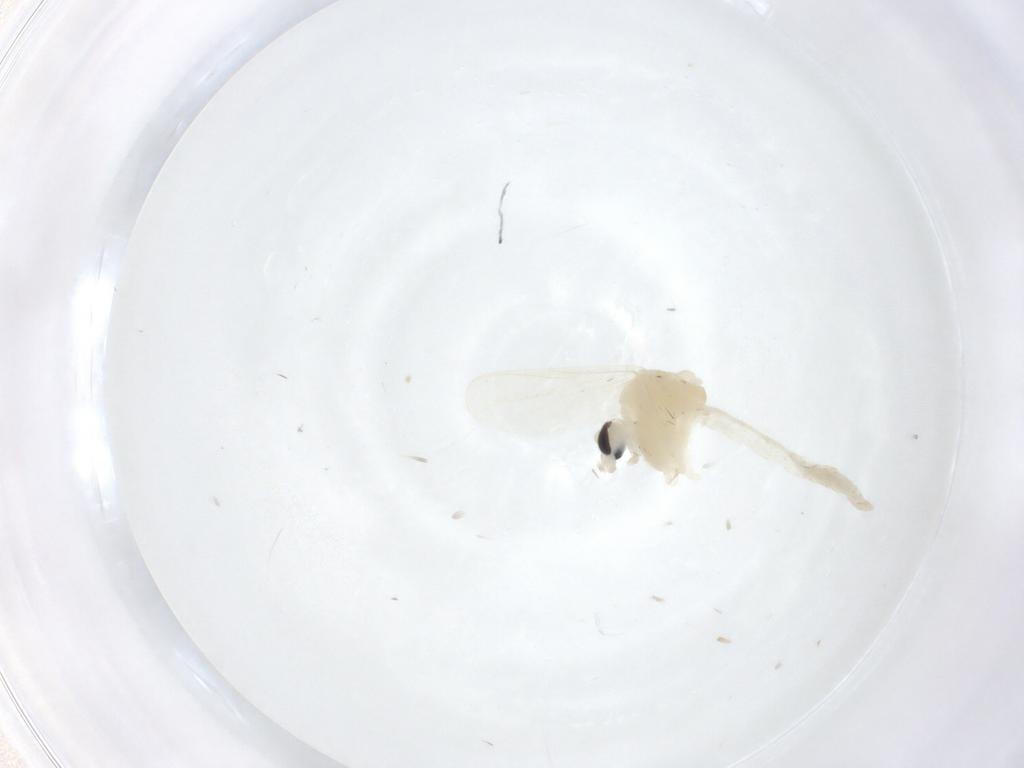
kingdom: Animalia
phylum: Arthropoda
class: Insecta
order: Diptera
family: Chironomidae
